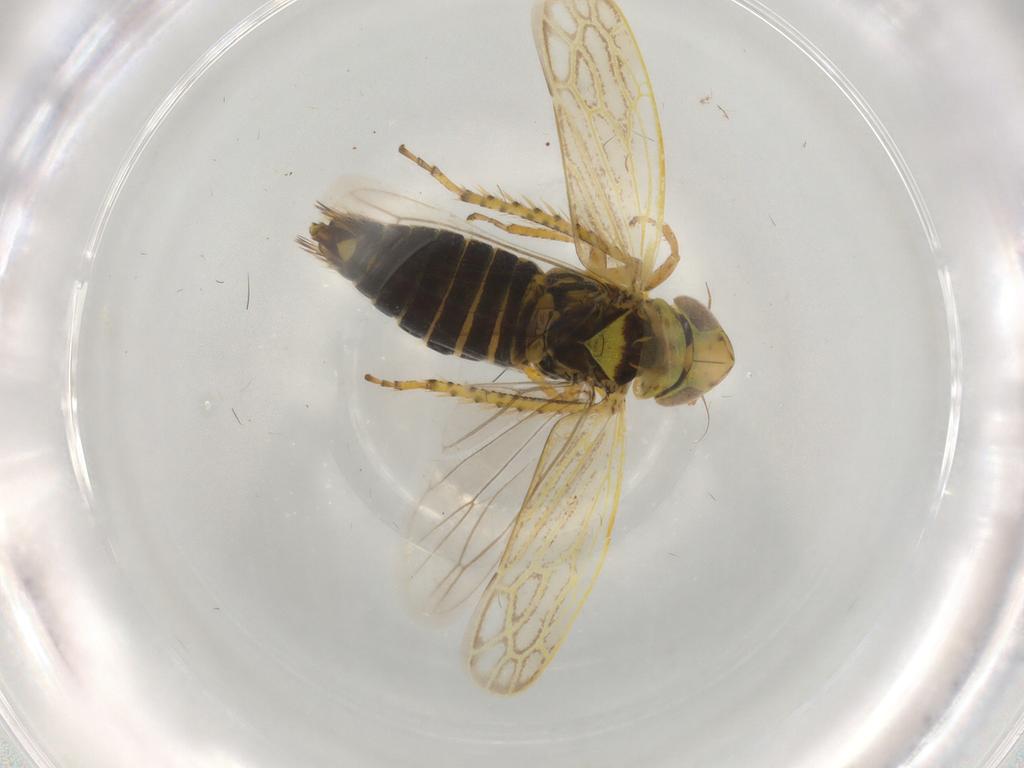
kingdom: Animalia
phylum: Arthropoda
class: Insecta
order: Hemiptera
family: Cicadellidae
